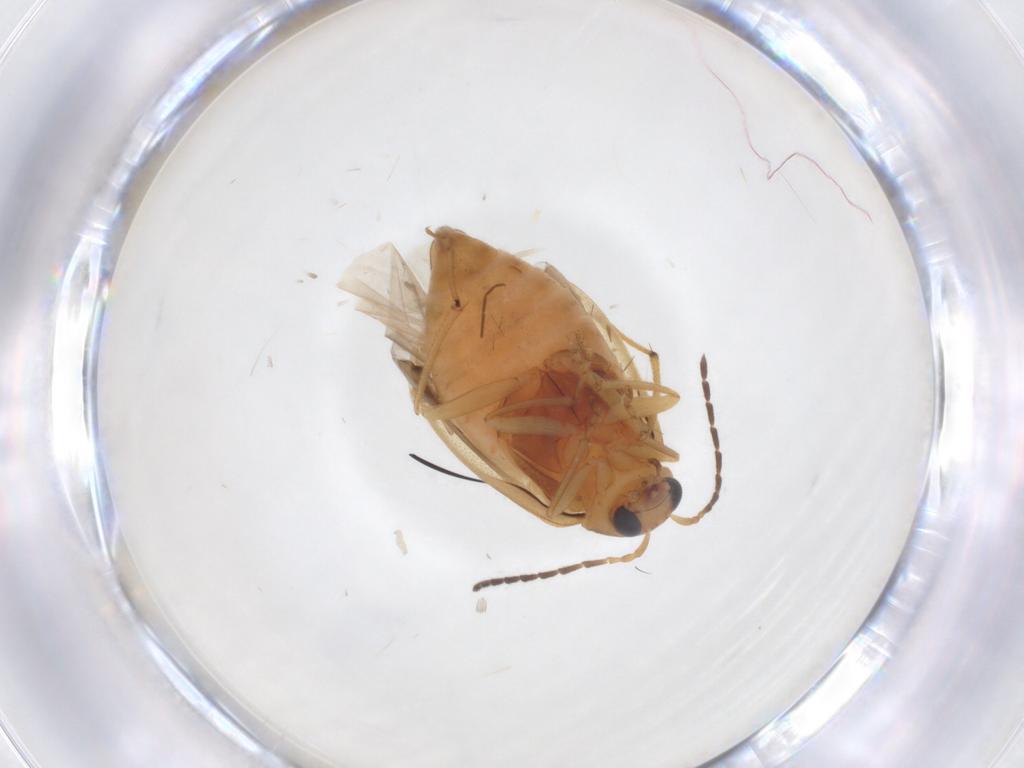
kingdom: Animalia
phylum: Arthropoda
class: Insecta
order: Coleoptera
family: Chrysomelidae
